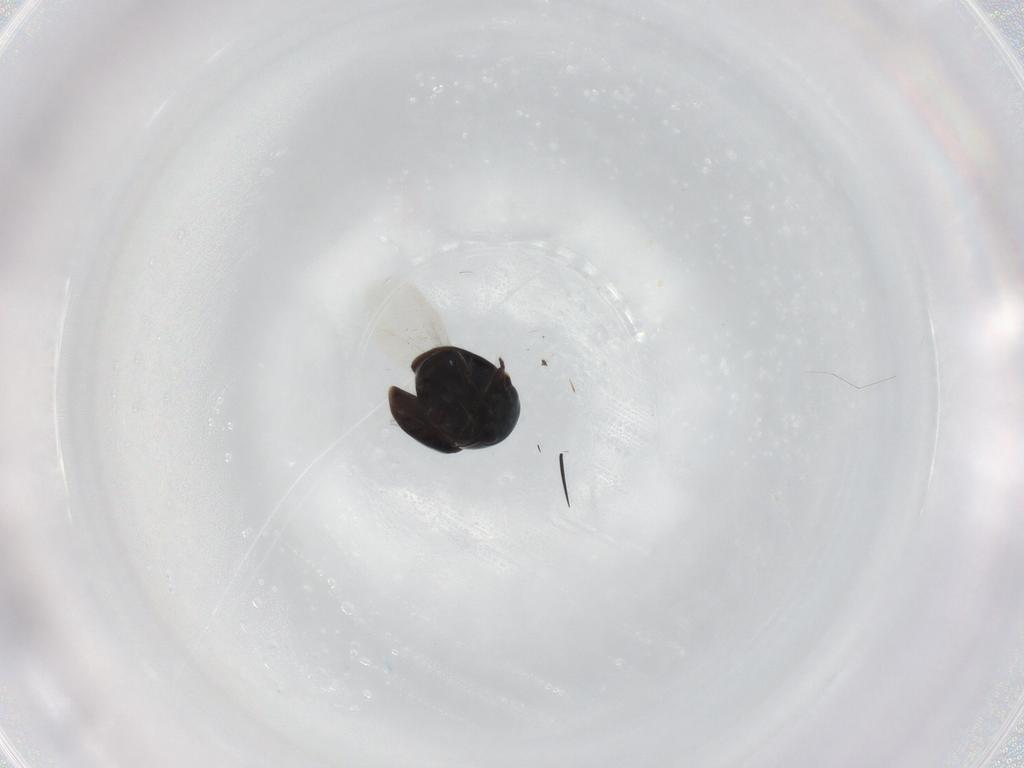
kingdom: Animalia
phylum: Arthropoda
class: Insecta
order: Coleoptera
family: Cybocephalidae
